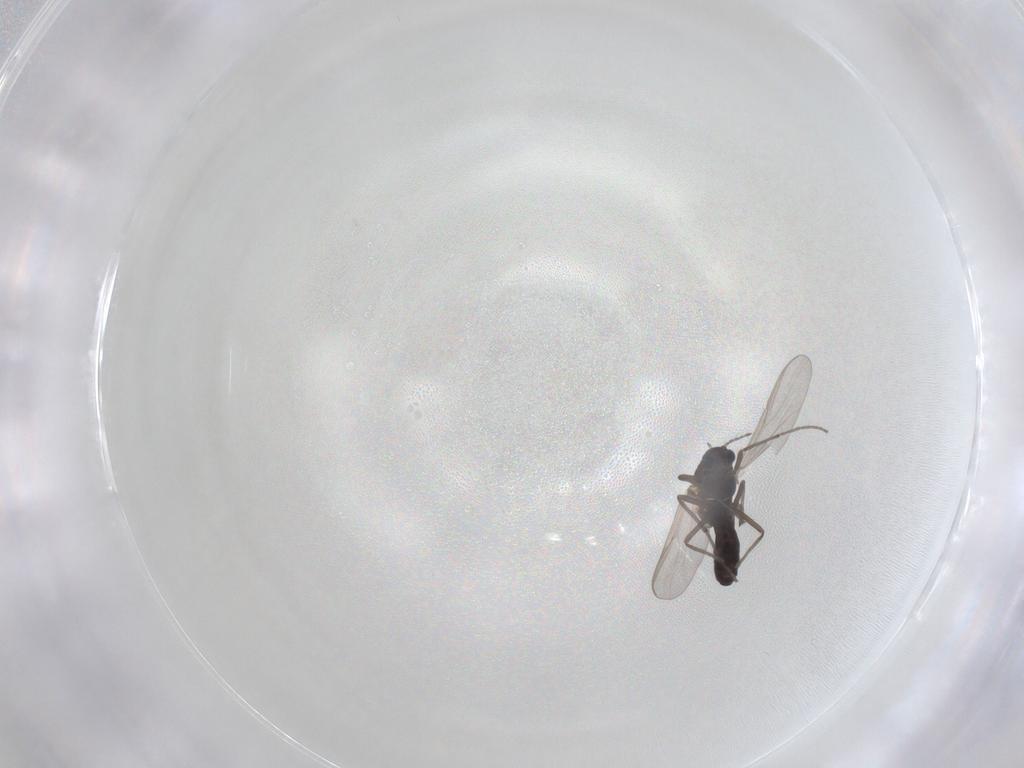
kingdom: Animalia
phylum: Arthropoda
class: Insecta
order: Diptera
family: Chironomidae
